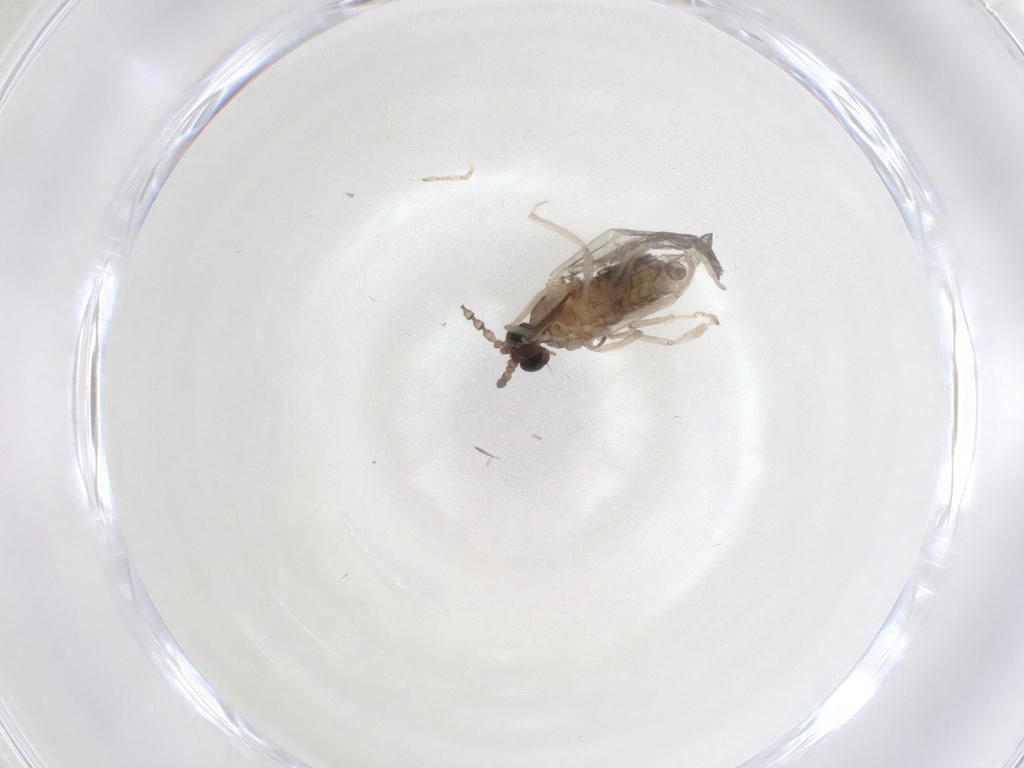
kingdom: Animalia
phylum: Arthropoda
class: Insecta
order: Diptera
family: Cecidomyiidae
